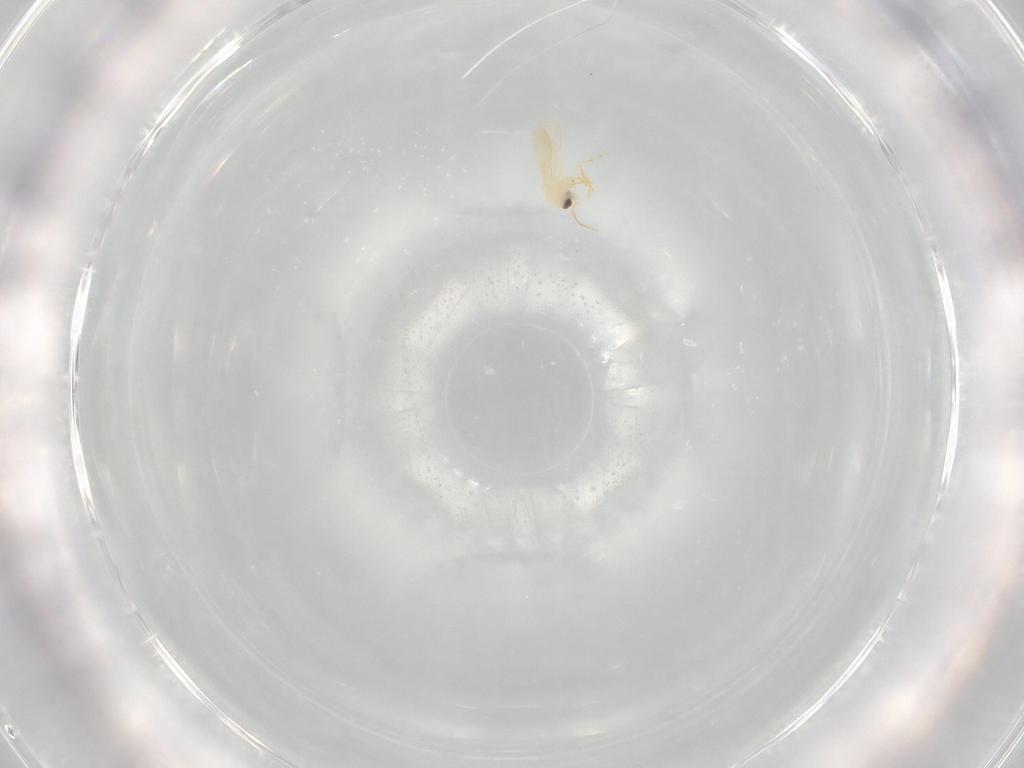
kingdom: Animalia
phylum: Arthropoda
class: Insecta
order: Hemiptera
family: Aleyrodidae
